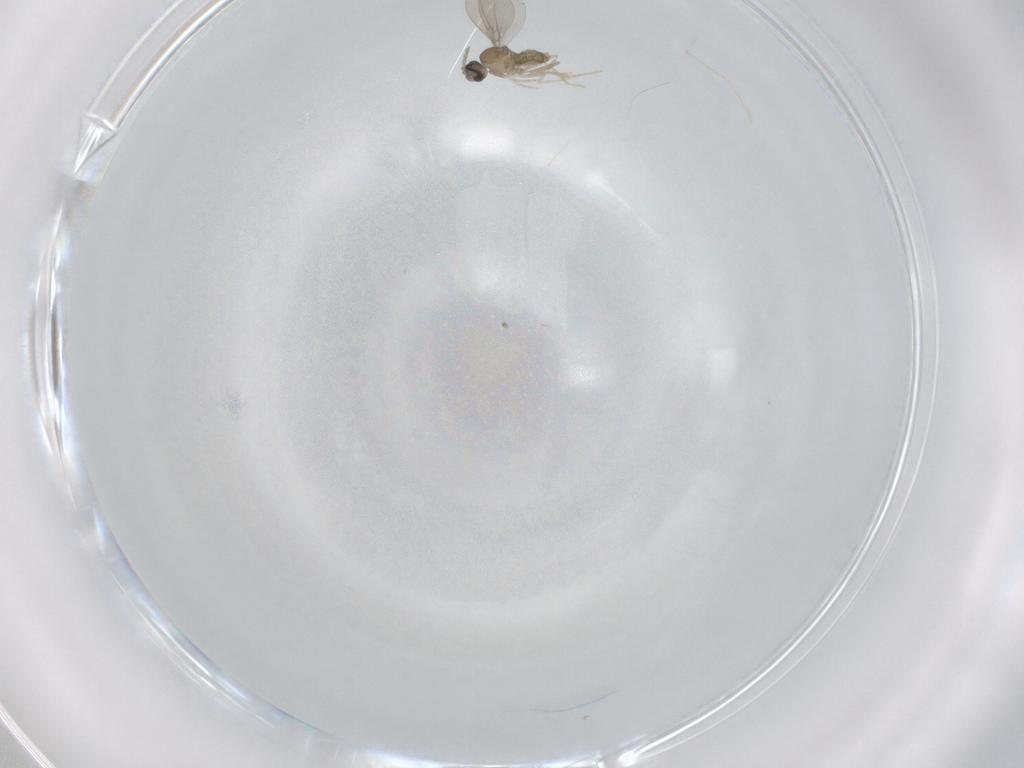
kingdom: Animalia
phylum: Arthropoda
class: Insecta
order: Diptera
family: Cecidomyiidae
